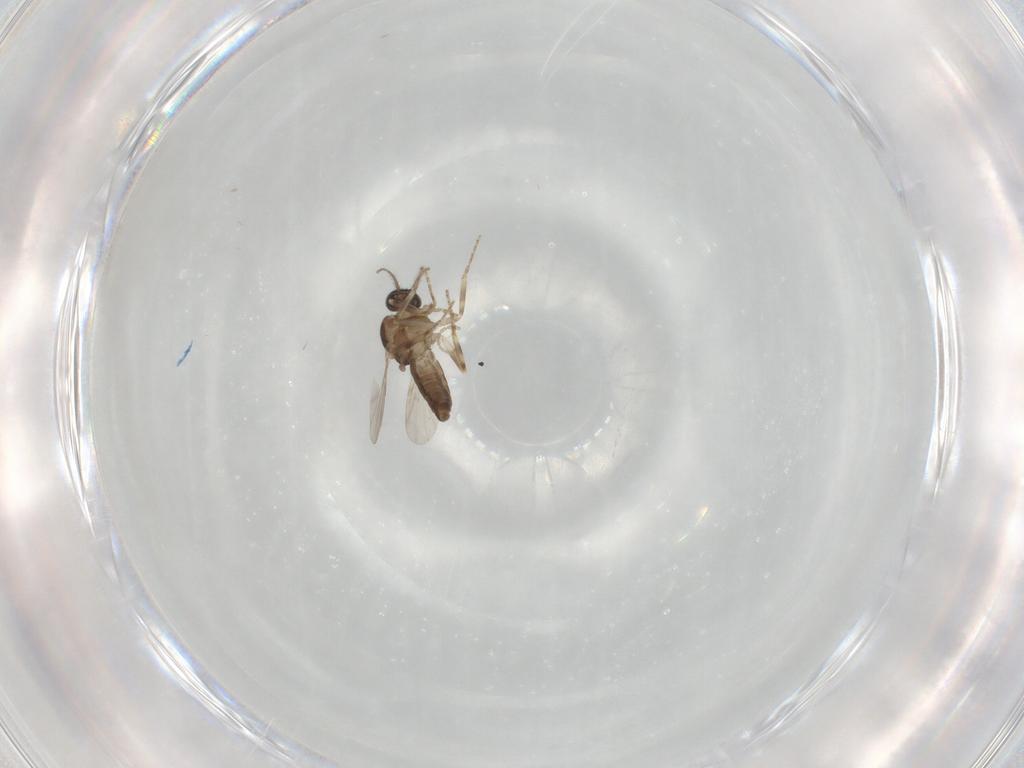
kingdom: Animalia
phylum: Arthropoda
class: Insecta
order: Diptera
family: Ceratopogonidae
